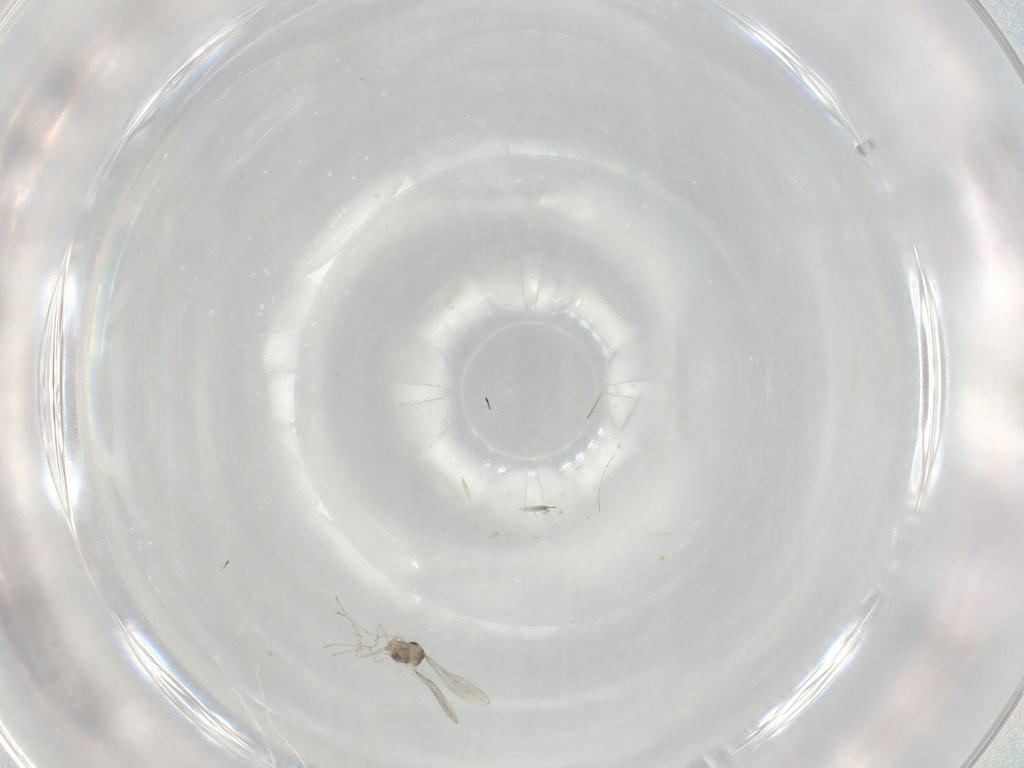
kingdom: Animalia
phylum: Arthropoda
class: Insecta
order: Diptera
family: Cecidomyiidae
